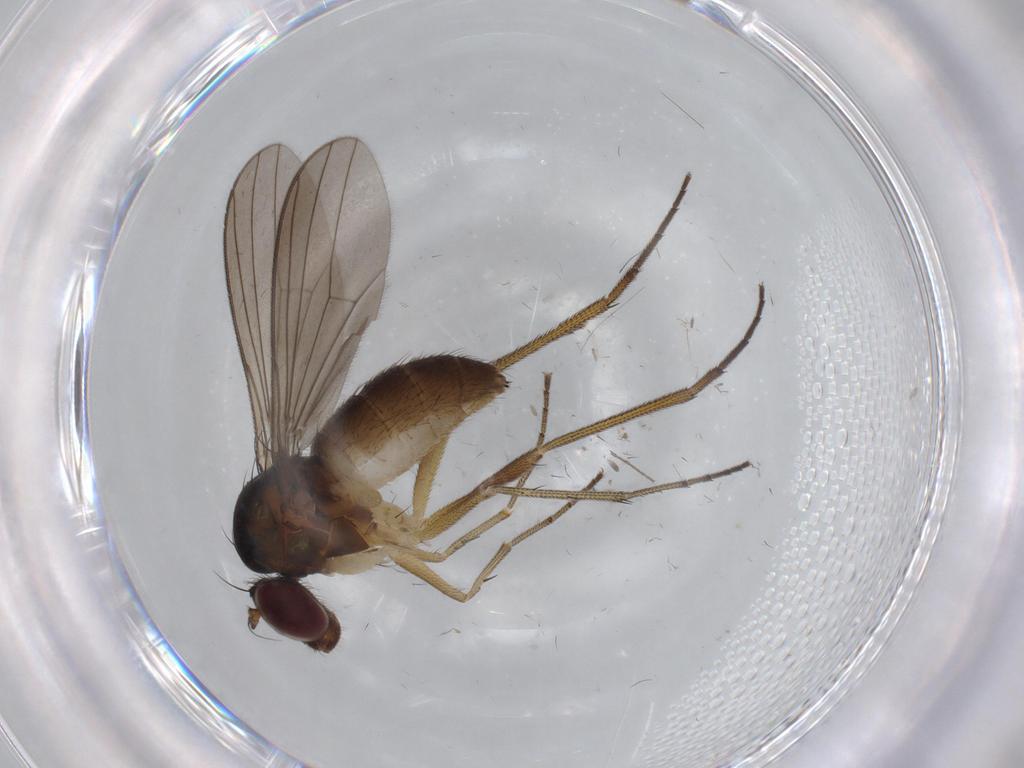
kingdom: Animalia
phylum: Arthropoda
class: Insecta
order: Diptera
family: Dolichopodidae
